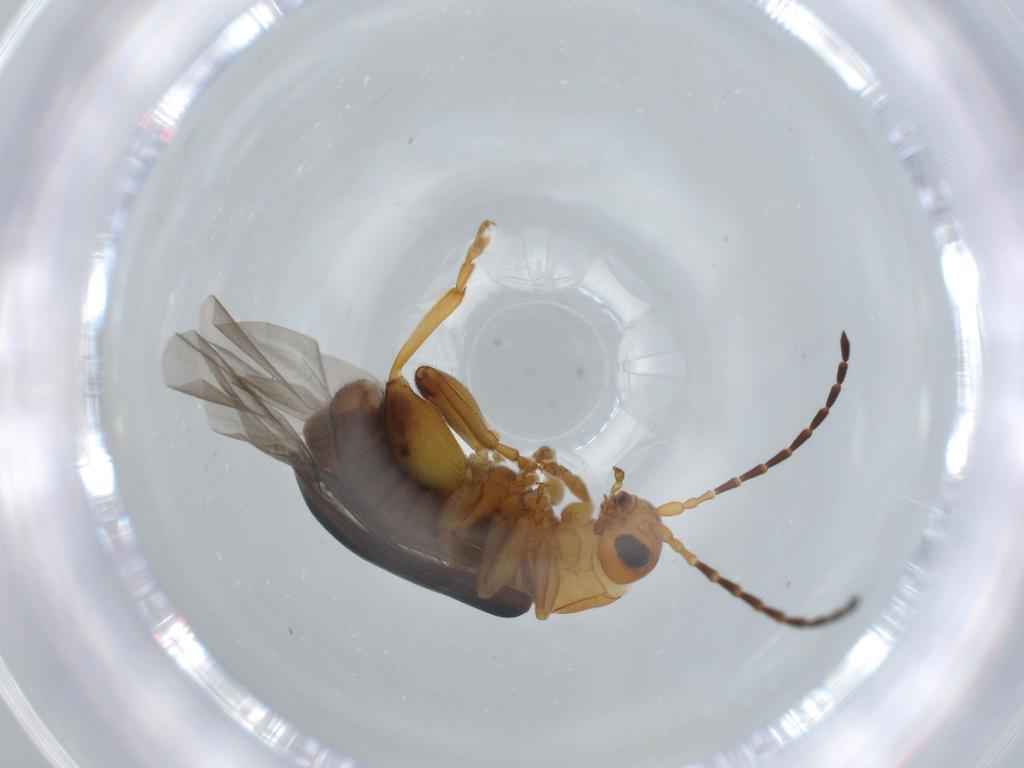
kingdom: Animalia
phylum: Arthropoda
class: Insecta
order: Coleoptera
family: Chrysomelidae
